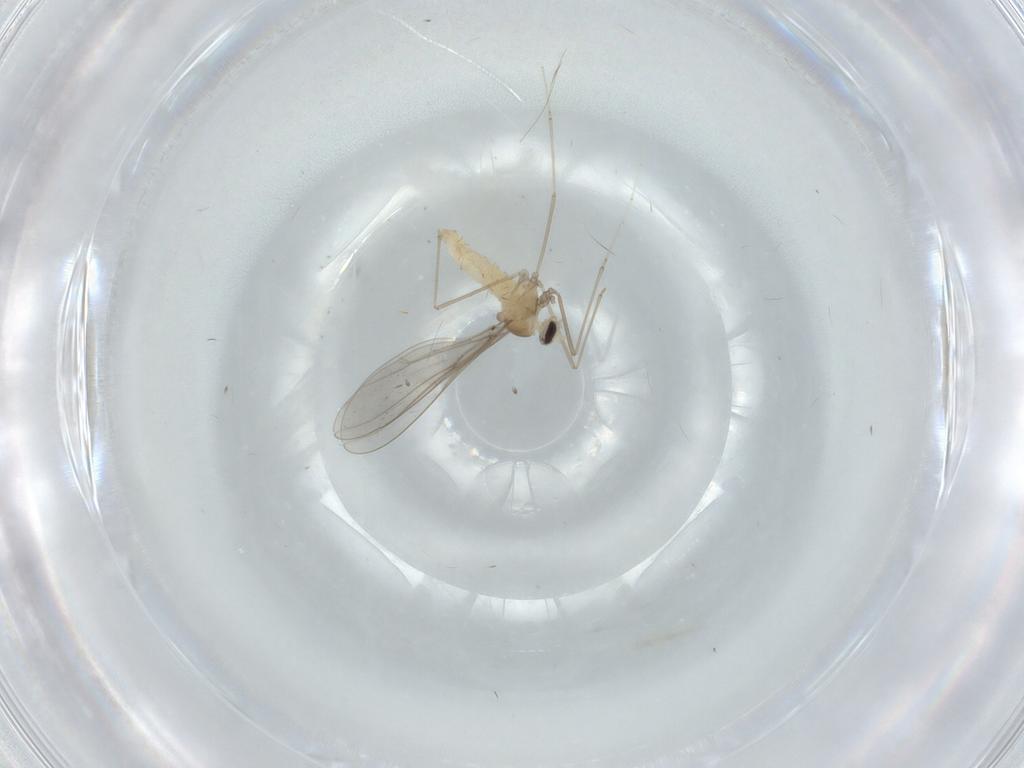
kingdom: Animalia
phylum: Arthropoda
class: Insecta
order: Diptera
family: Cecidomyiidae
